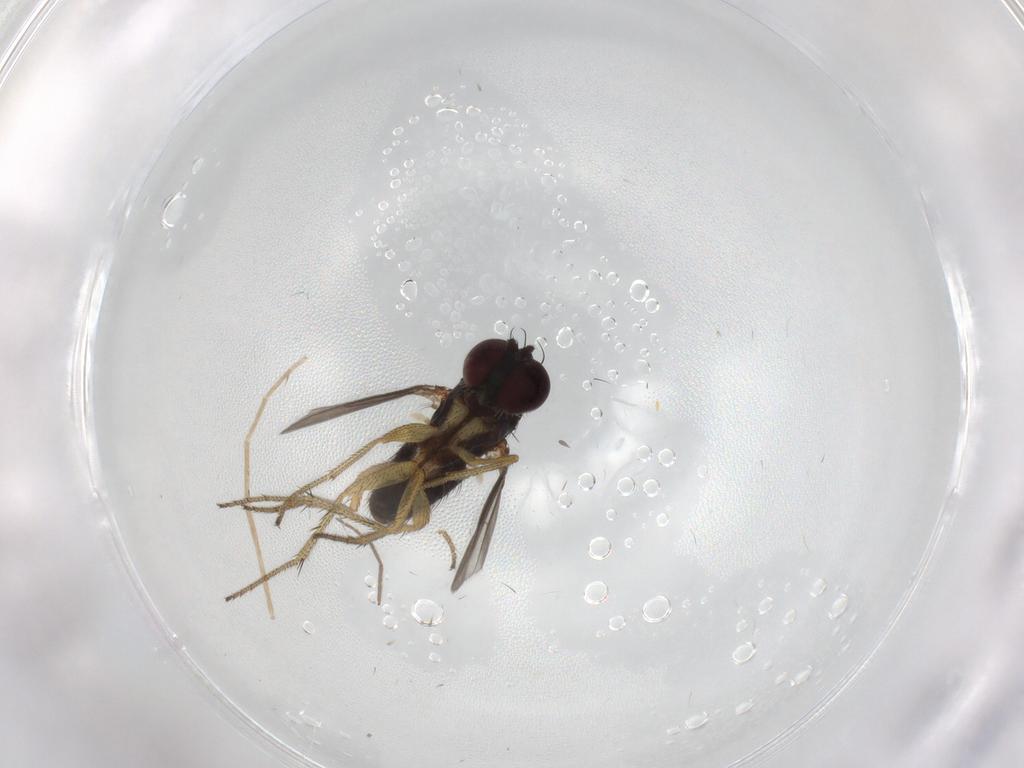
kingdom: Animalia
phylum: Arthropoda
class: Insecta
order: Diptera
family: Chironomidae
